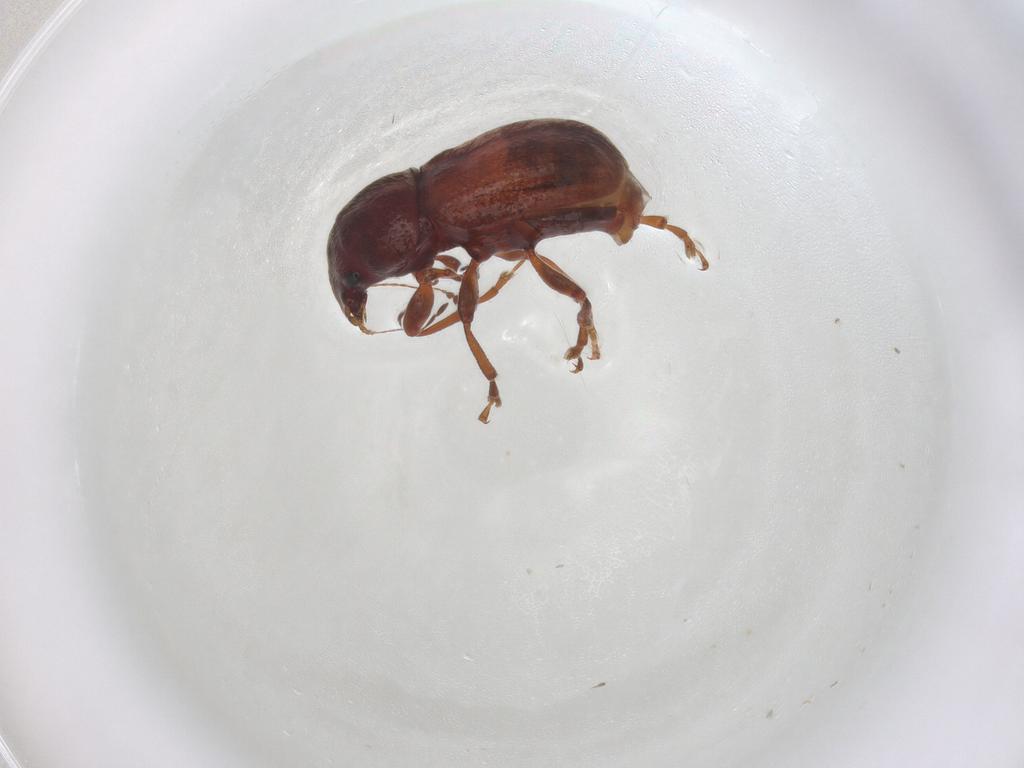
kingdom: Animalia
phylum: Arthropoda
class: Insecta
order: Coleoptera
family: Anthribidae
